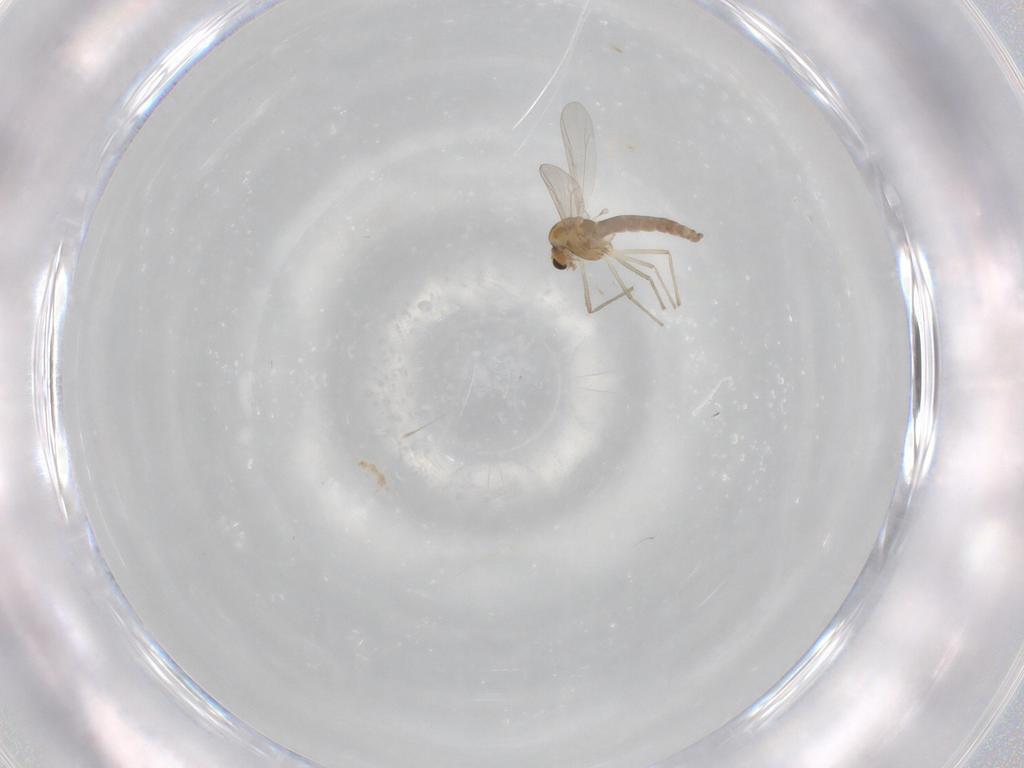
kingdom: Animalia
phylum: Arthropoda
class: Insecta
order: Diptera
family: Chironomidae
